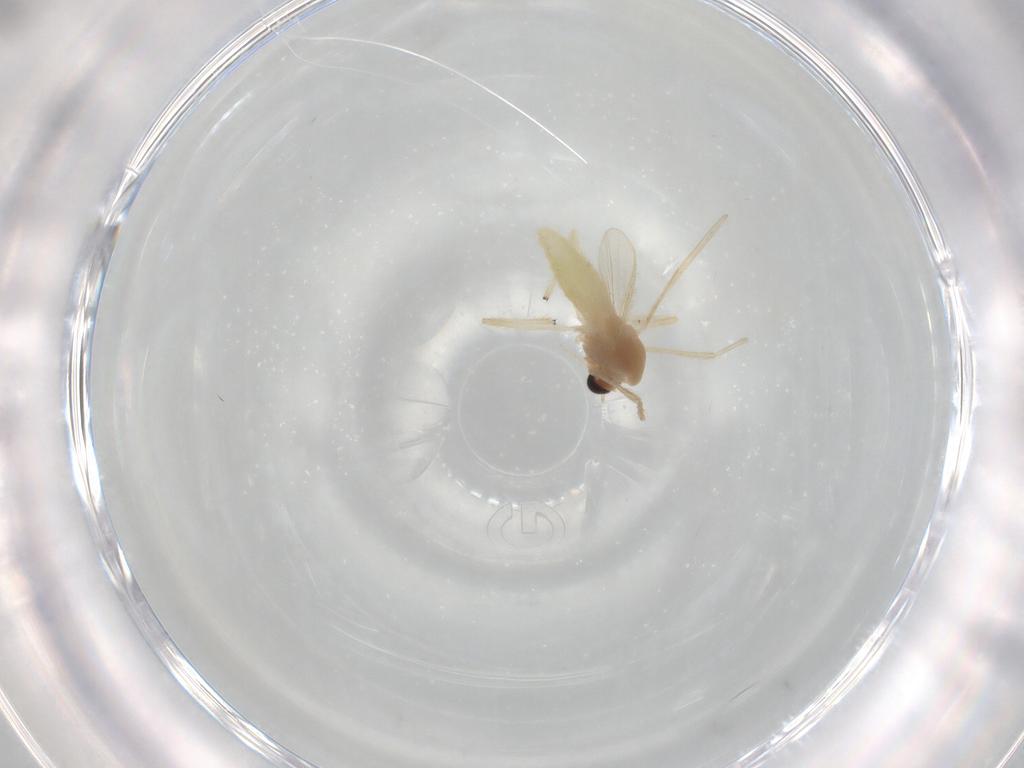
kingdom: Animalia
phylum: Arthropoda
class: Insecta
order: Diptera
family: Chironomidae
